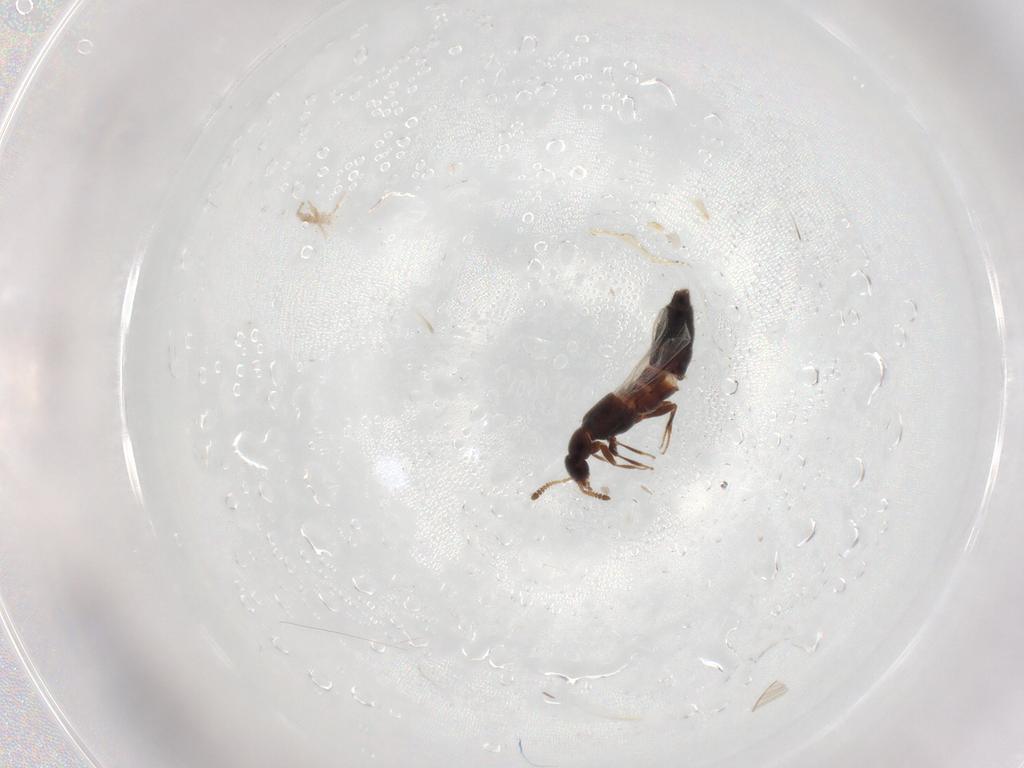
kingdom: Animalia
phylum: Arthropoda
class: Insecta
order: Coleoptera
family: Staphylinidae
